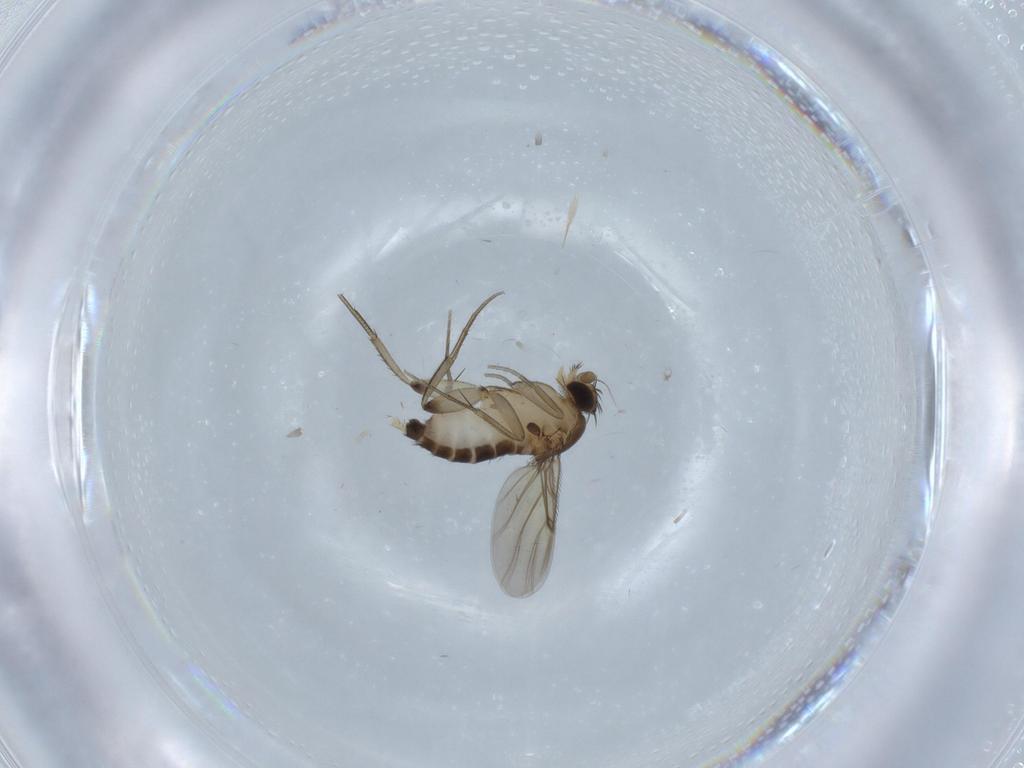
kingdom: Animalia
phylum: Arthropoda
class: Insecta
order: Diptera
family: Phoridae
